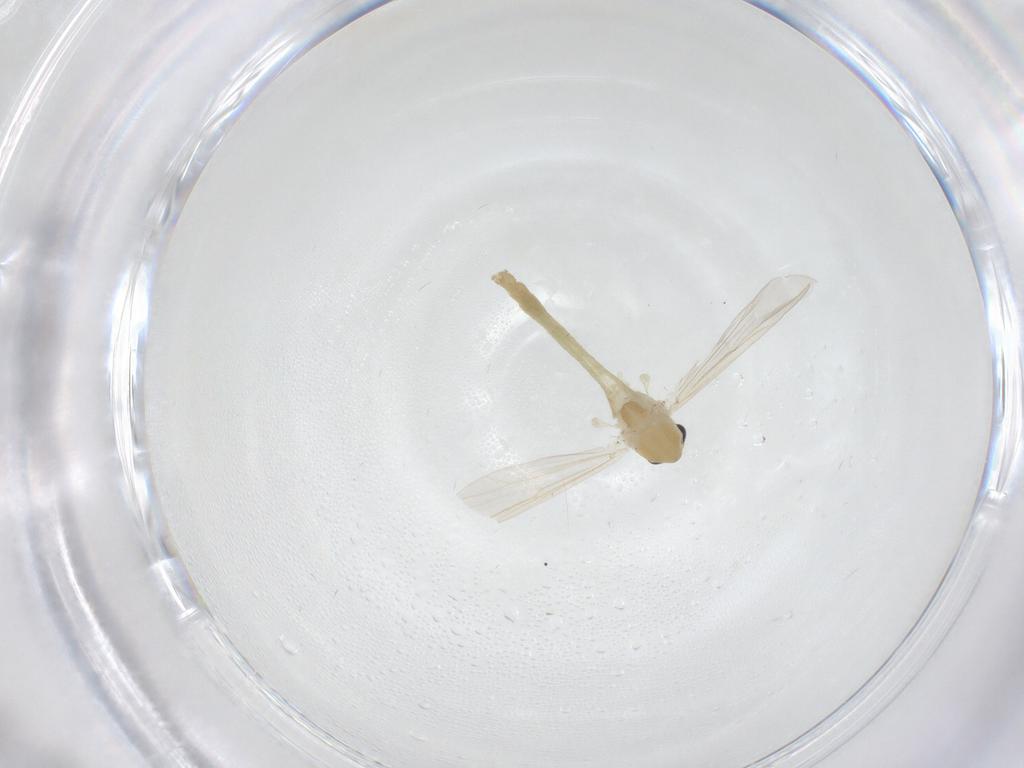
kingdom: Animalia
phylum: Arthropoda
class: Insecta
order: Diptera
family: Chironomidae
